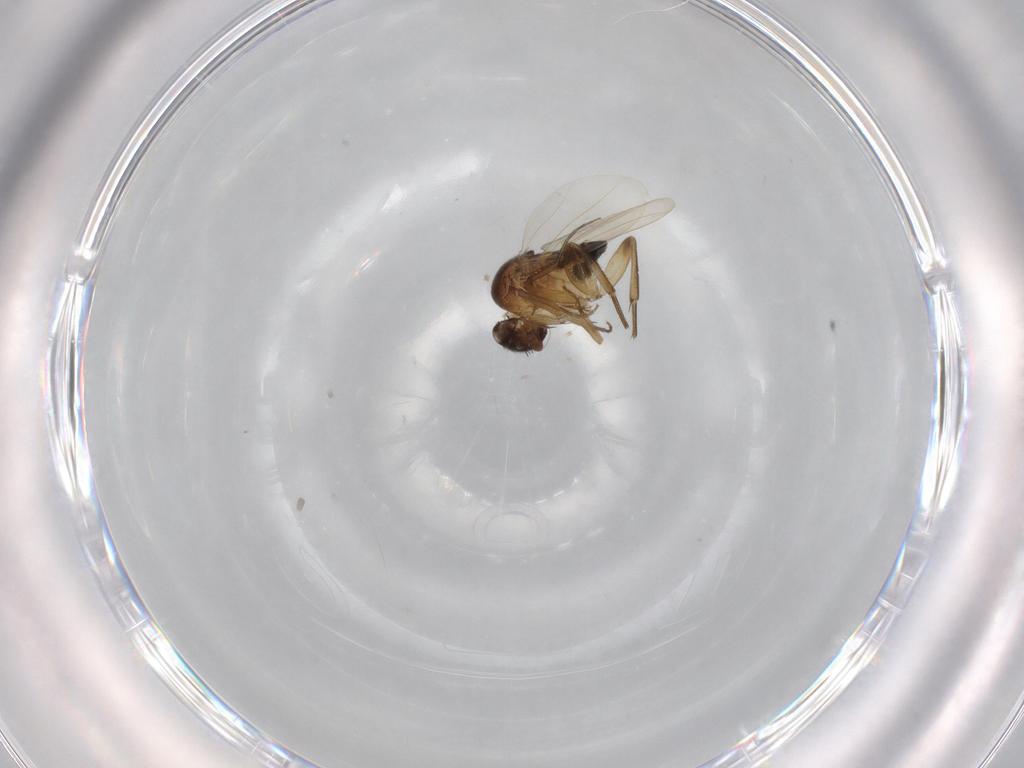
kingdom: Animalia
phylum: Arthropoda
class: Insecta
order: Diptera
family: Phoridae
